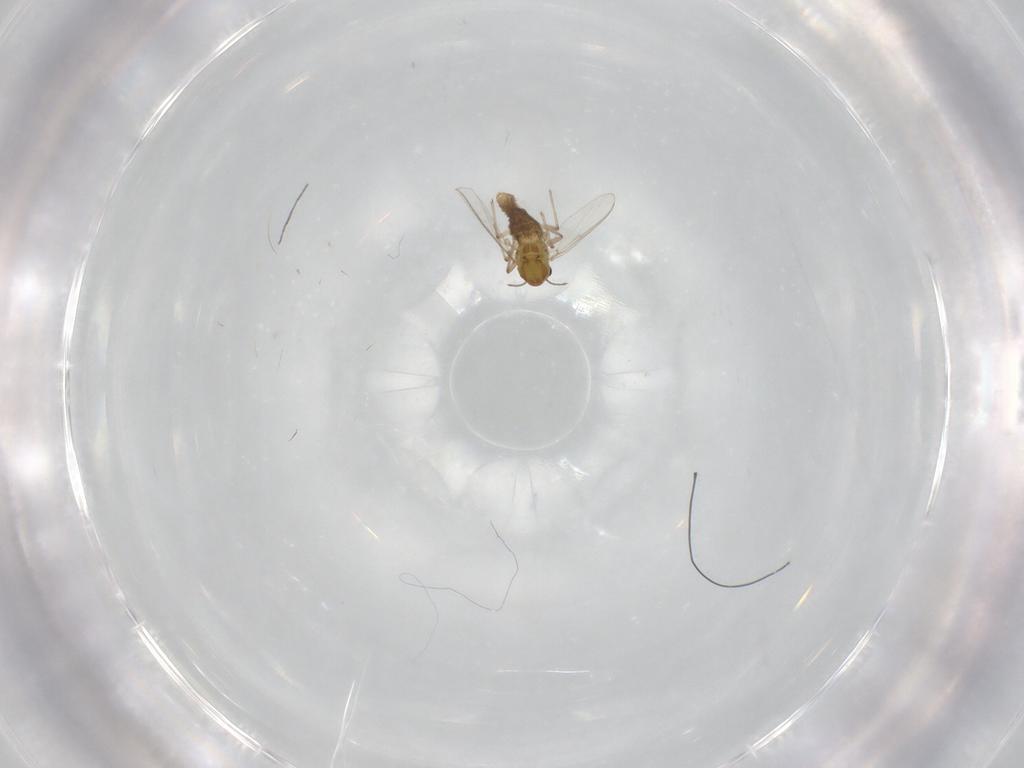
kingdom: Animalia
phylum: Arthropoda
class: Insecta
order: Diptera
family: Chironomidae
